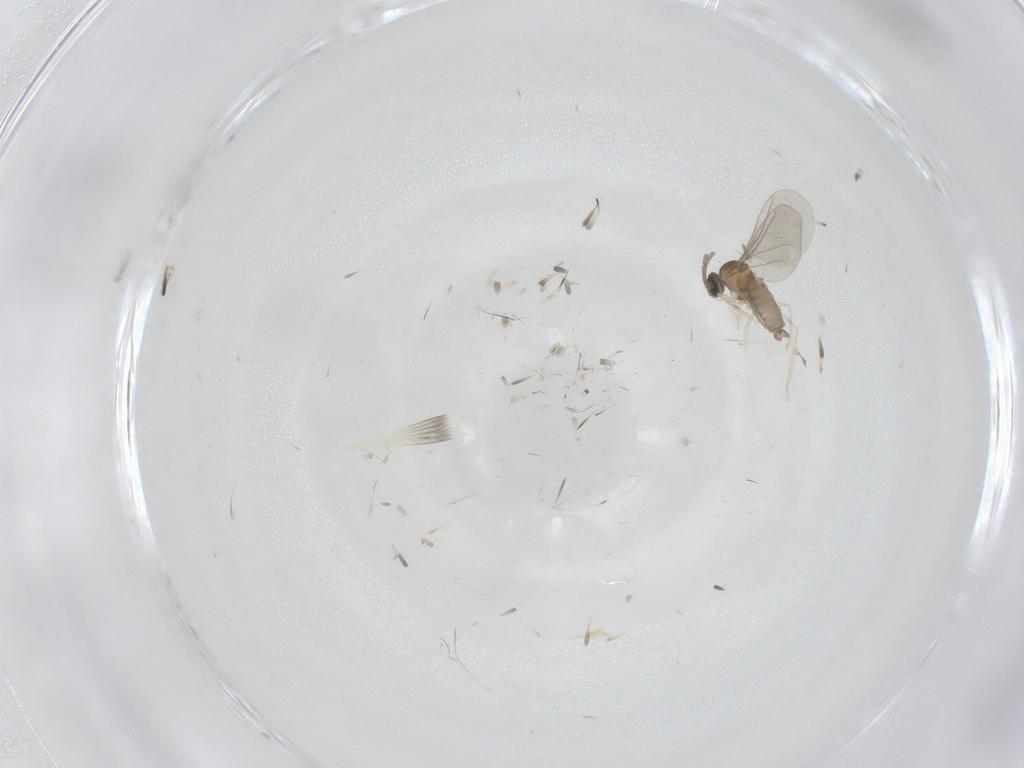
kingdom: Animalia
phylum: Arthropoda
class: Insecta
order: Diptera
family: Cecidomyiidae
